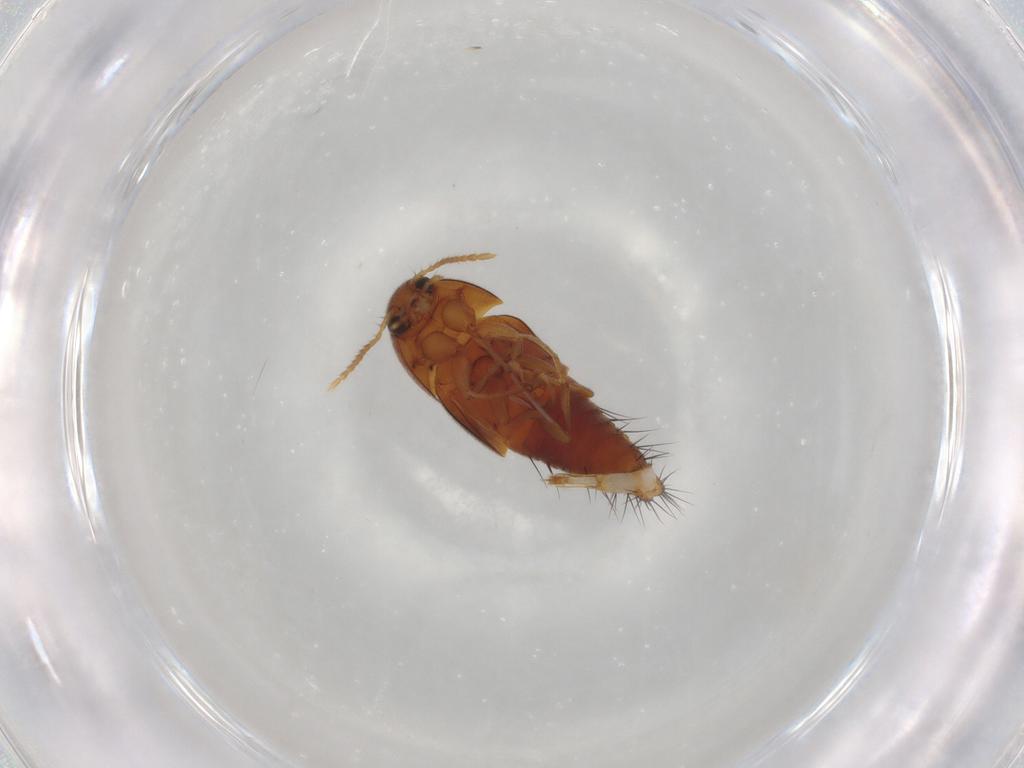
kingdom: Animalia
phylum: Arthropoda
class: Insecta
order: Coleoptera
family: Staphylinidae
